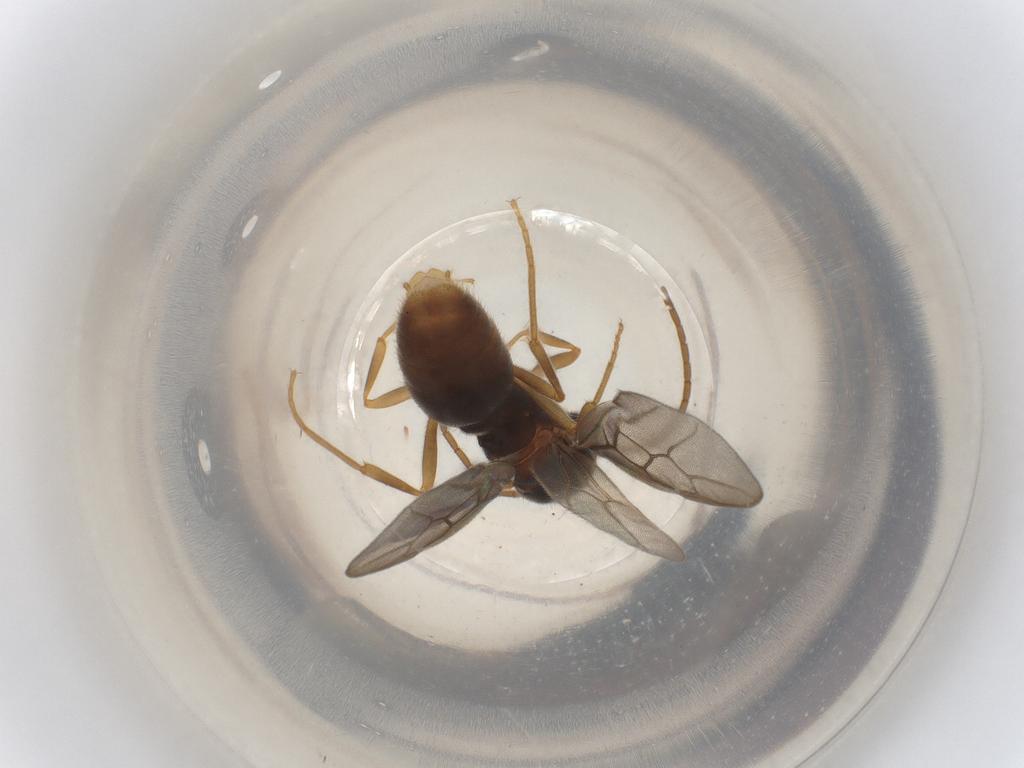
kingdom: Animalia
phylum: Arthropoda
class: Insecta
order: Hymenoptera
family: Formicidae
